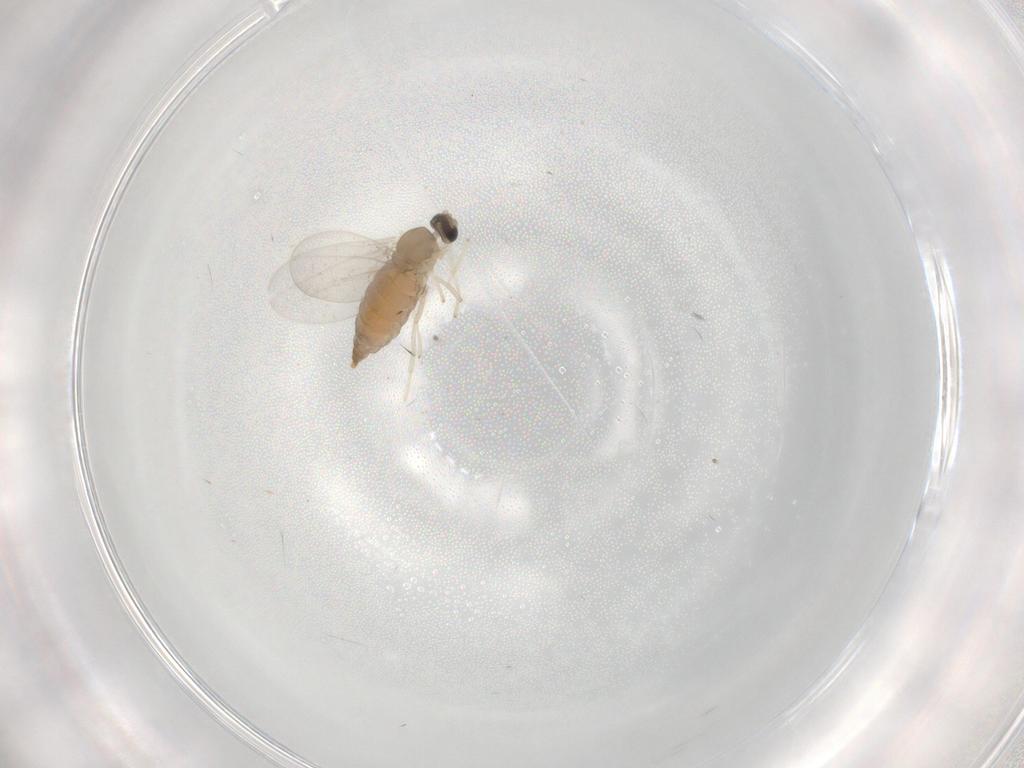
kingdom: Animalia
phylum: Arthropoda
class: Insecta
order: Diptera
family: Cecidomyiidae
